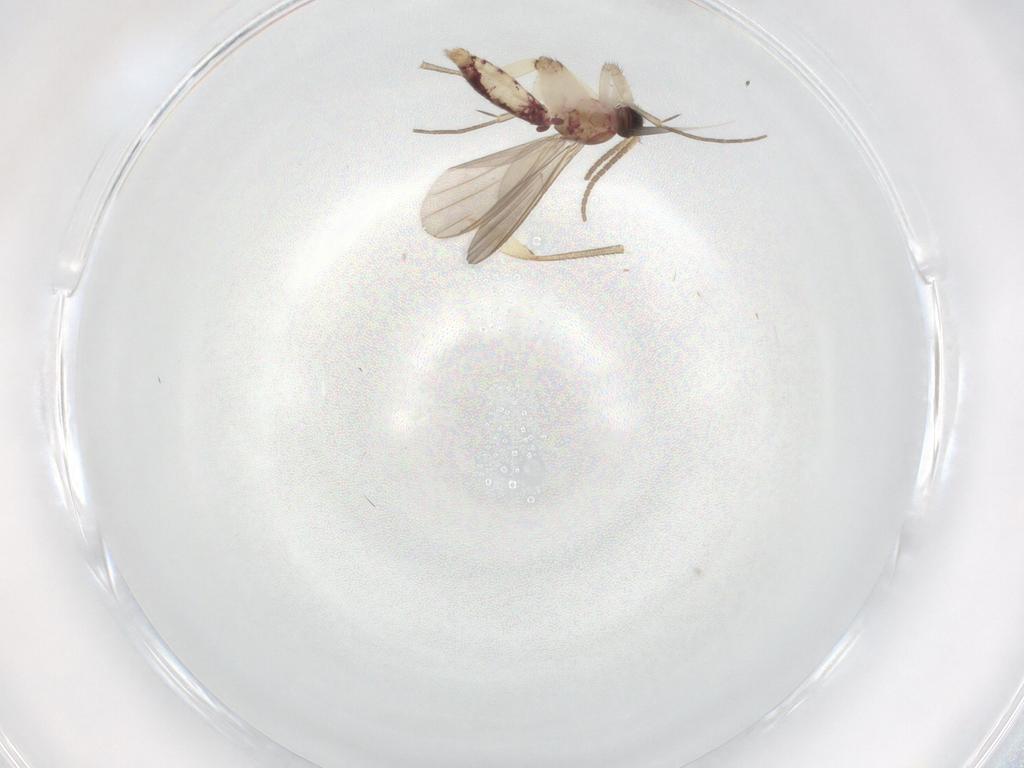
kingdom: Animalia
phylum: Arthropoda
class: Insecta
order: Diptera
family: Mycetophilidae
